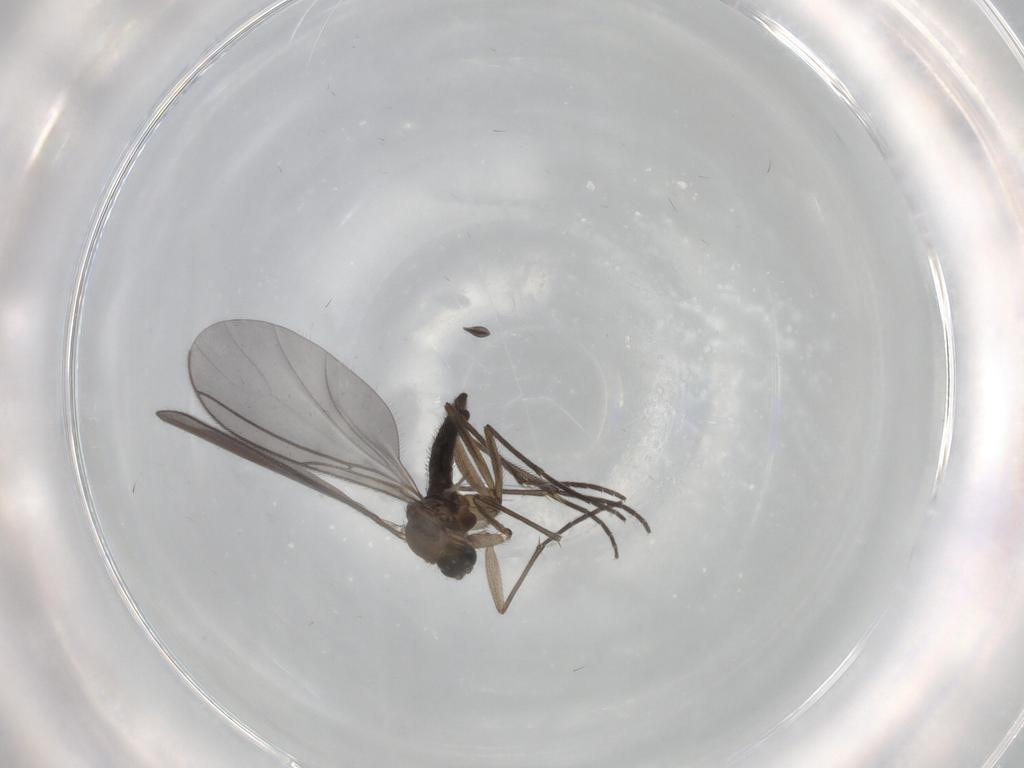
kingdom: Animalia
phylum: Arthropoda
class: Insecta
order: Diptera
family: Sciaridae
